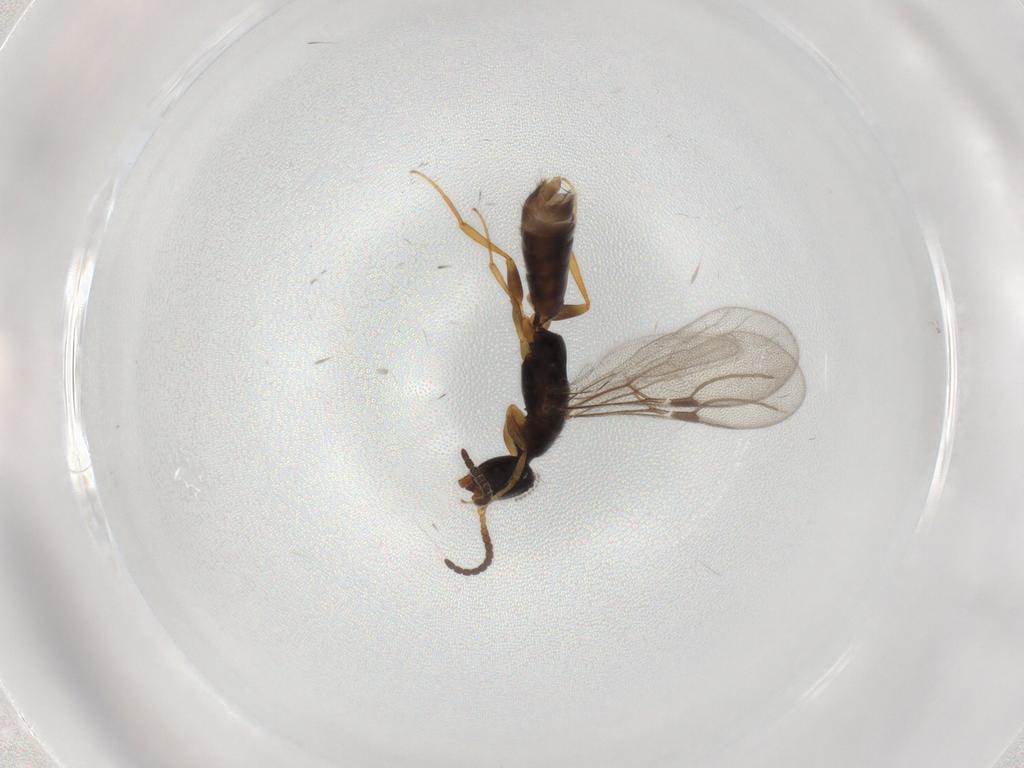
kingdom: Animalia
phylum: Arthropoda
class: Insecta
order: Hymenoptera
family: Bethylidae
